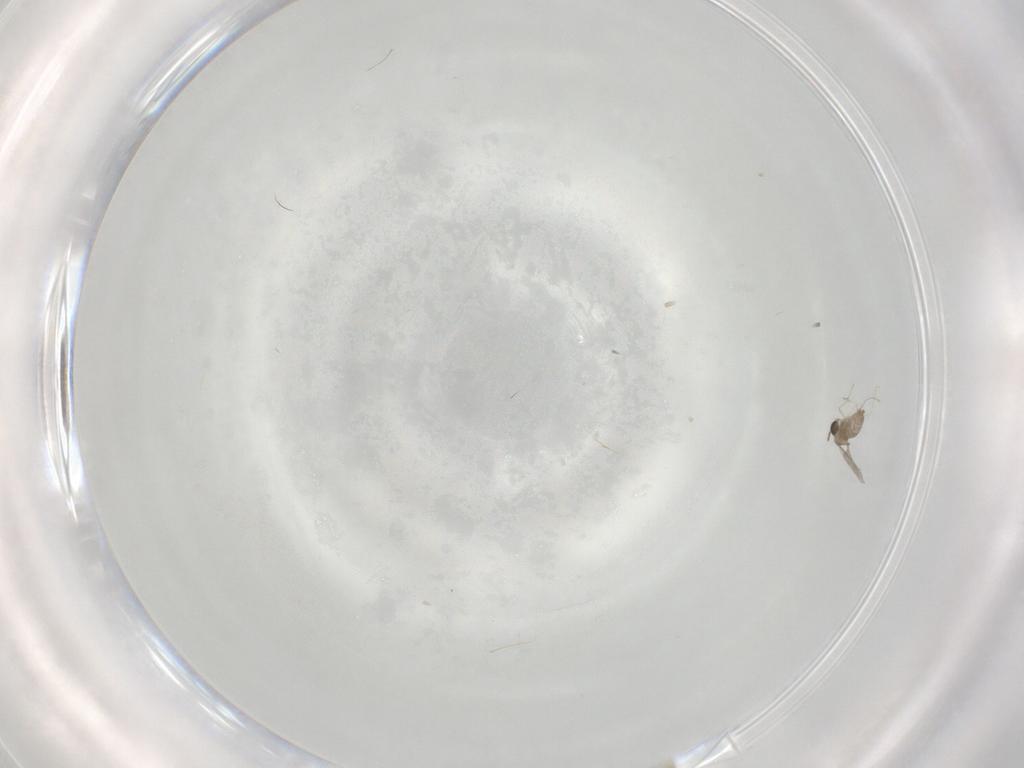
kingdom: Animalia
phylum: Arthropoda
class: Insecta
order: Diptera
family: Cecidomyiidae
